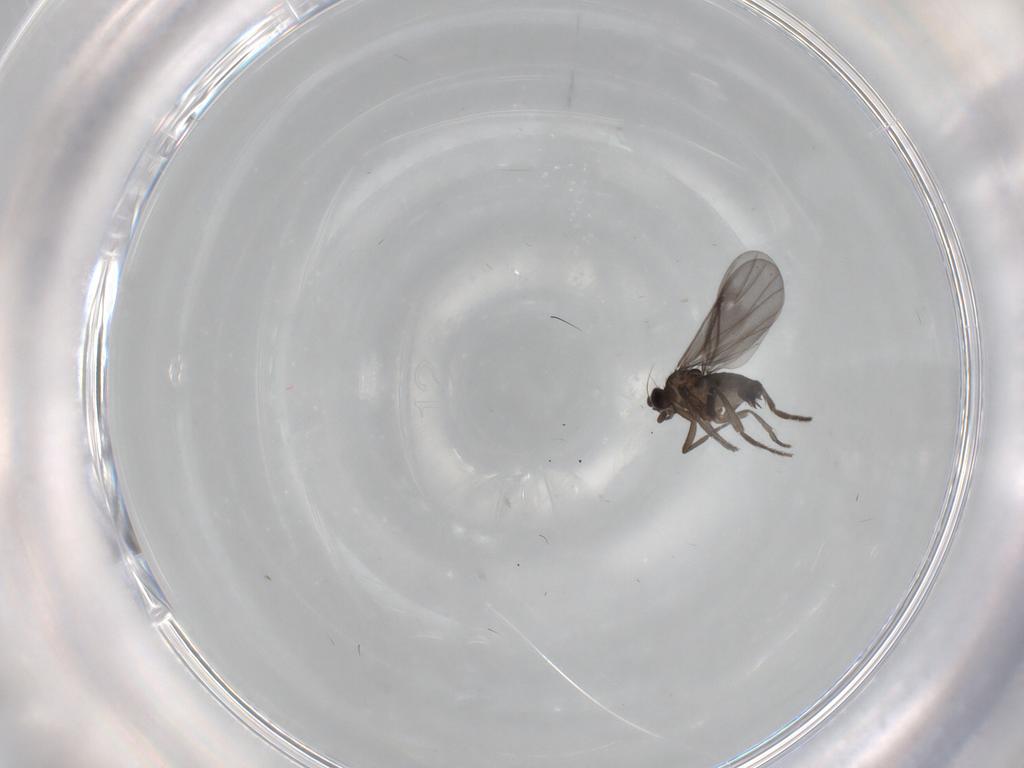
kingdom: Animalia
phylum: Arthropoda
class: Insecta
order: Diptera
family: Phoridae
